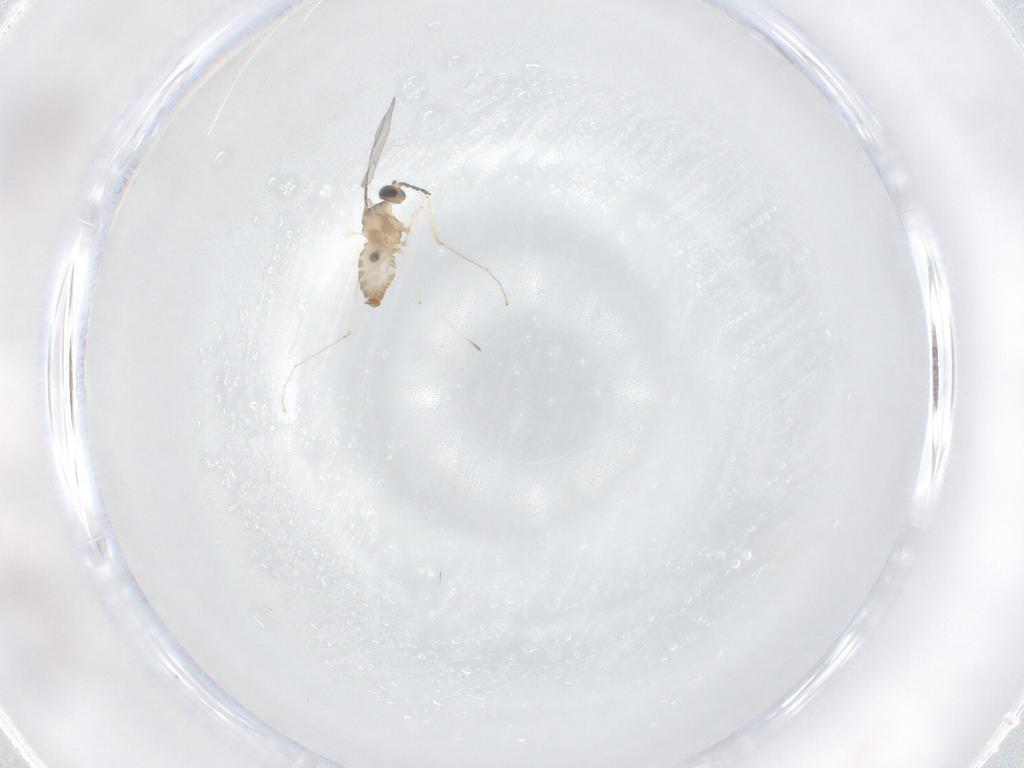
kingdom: Animalia
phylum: Arthropoda
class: Insecta
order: Diptera
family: Cecidomyiidae
